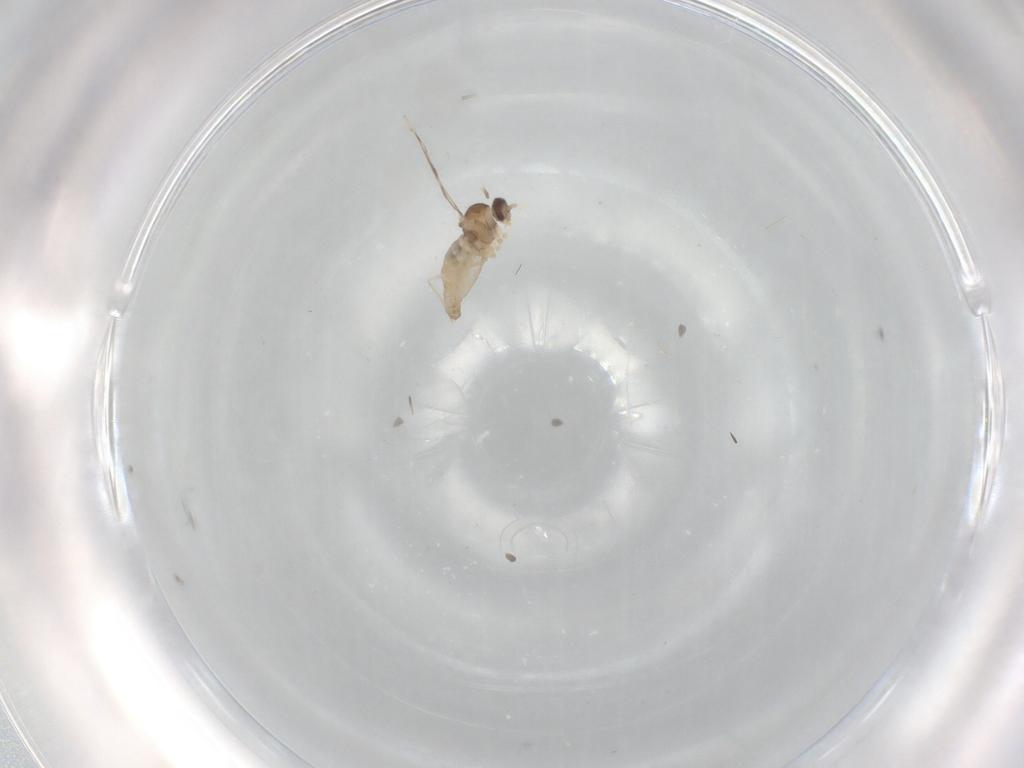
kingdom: Animalia
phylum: Arthropoda
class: Insecta
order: Diptera
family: Cecidomyiidae
